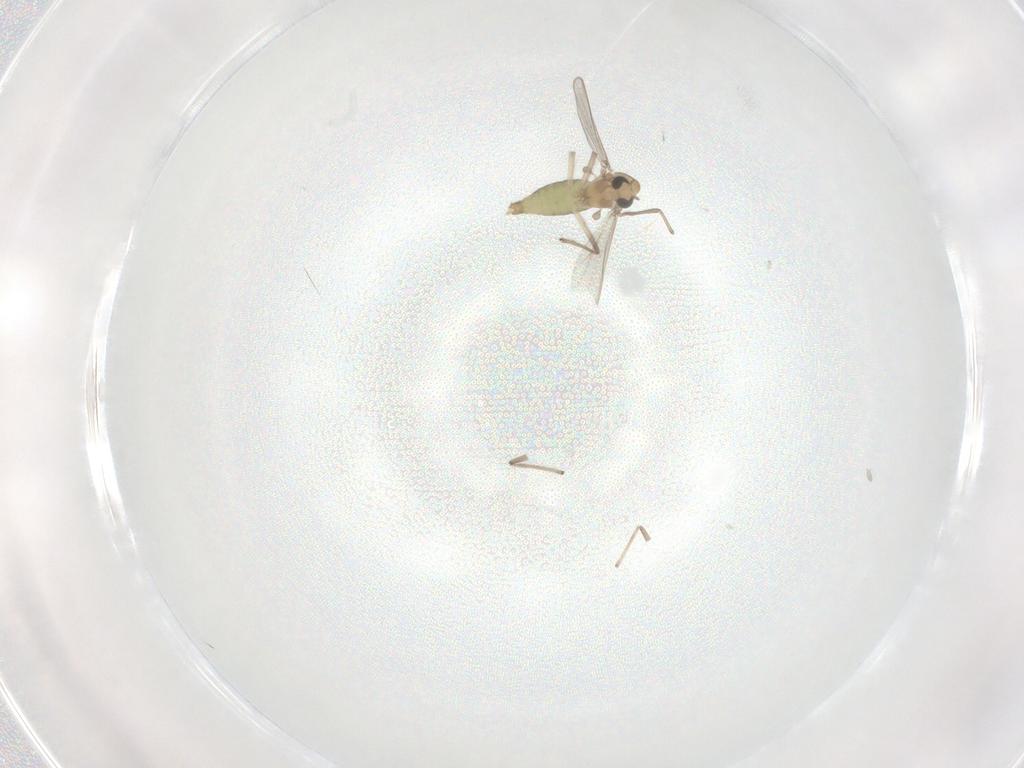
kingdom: Animalia
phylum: Arthropoda
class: Insecta
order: Diptera
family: Chironomidae
